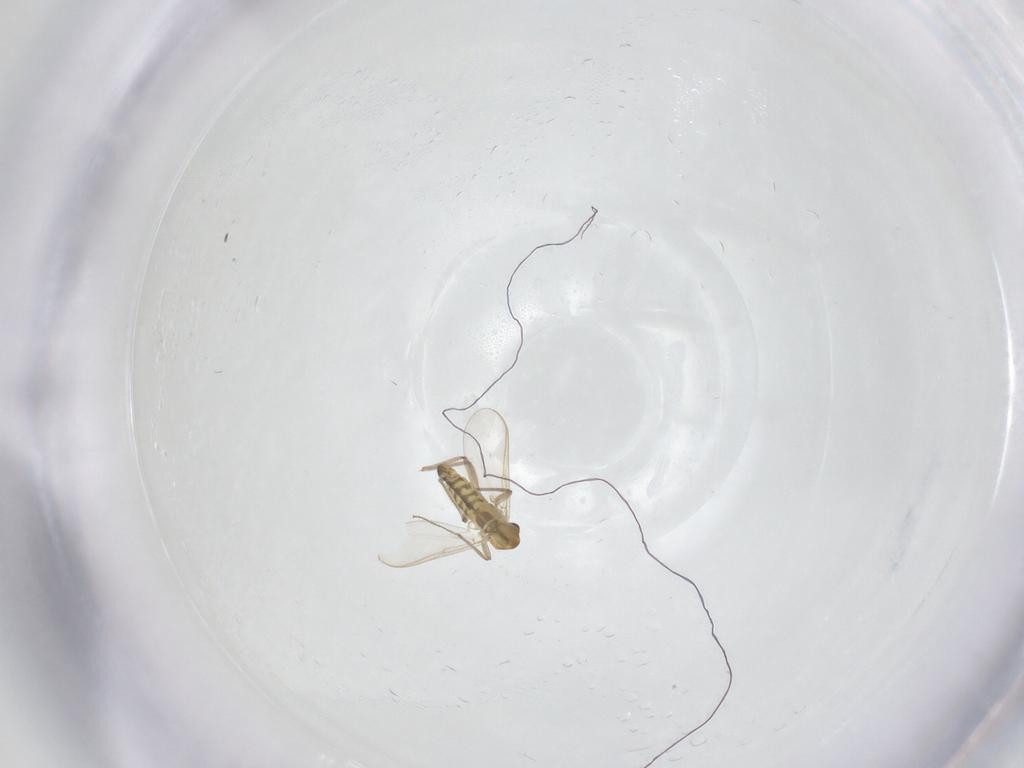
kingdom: Animalia
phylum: Arthropoda
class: Insecta
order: Diptera
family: Chironomidae
